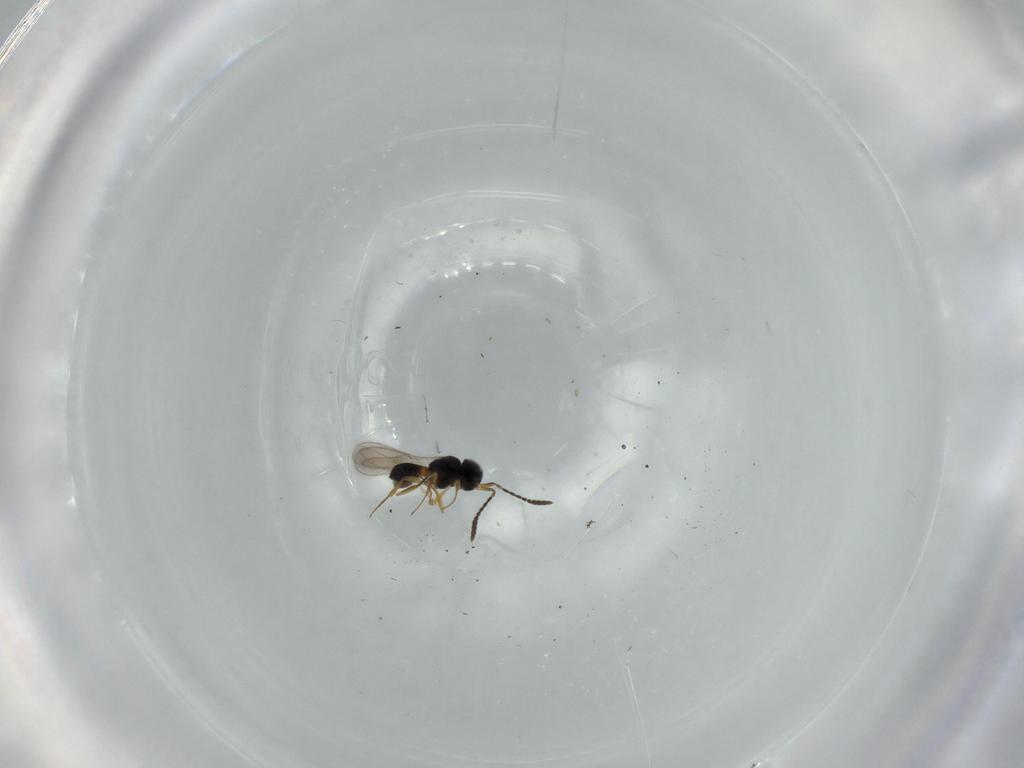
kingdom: Animalia
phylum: Arthropoda
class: Insecta
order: Hymenoptera
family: Scelionidae
